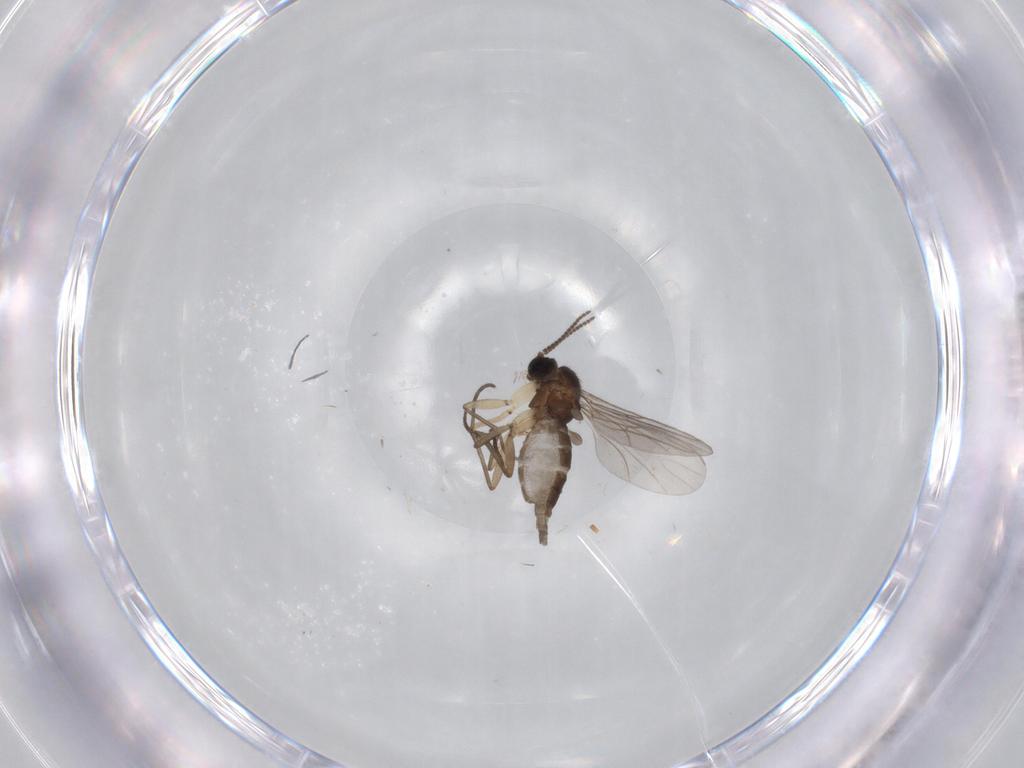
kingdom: Animalia
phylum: Arthropoda
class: Insecta
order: Diptera
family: Sciaridae
